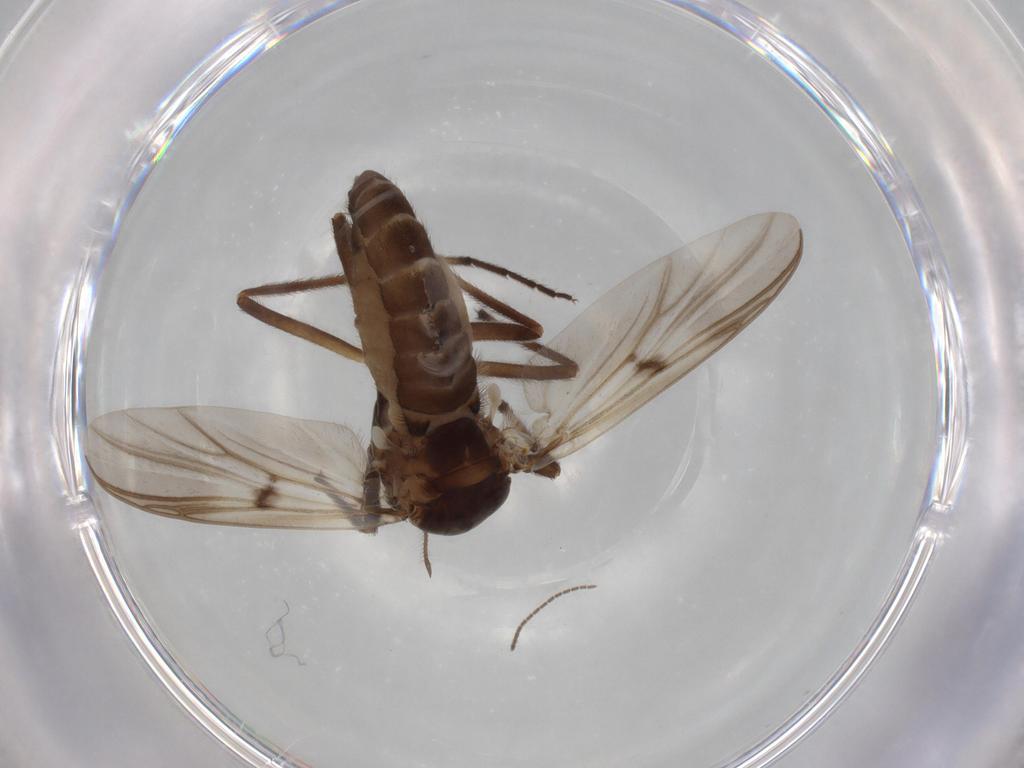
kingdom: Animalia
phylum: Arthropoda
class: Insecta
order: Diptera
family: Chironomidae
